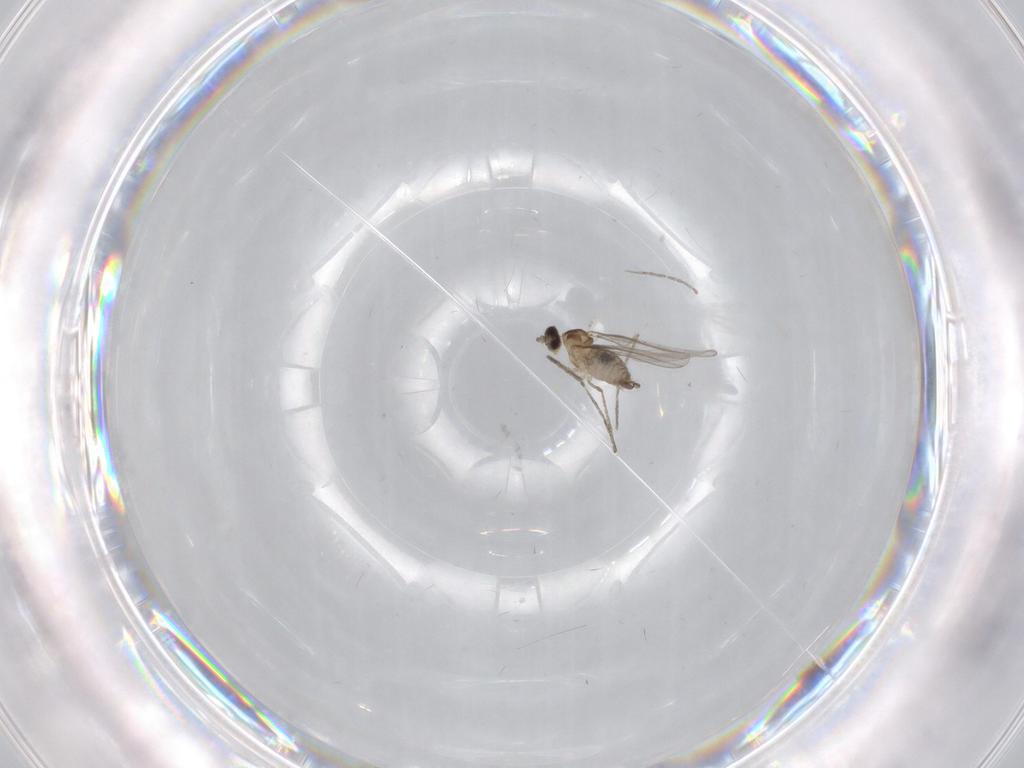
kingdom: Animalia
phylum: Arthropoda
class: Insecta
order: Diptera
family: Cecidomyiidae
